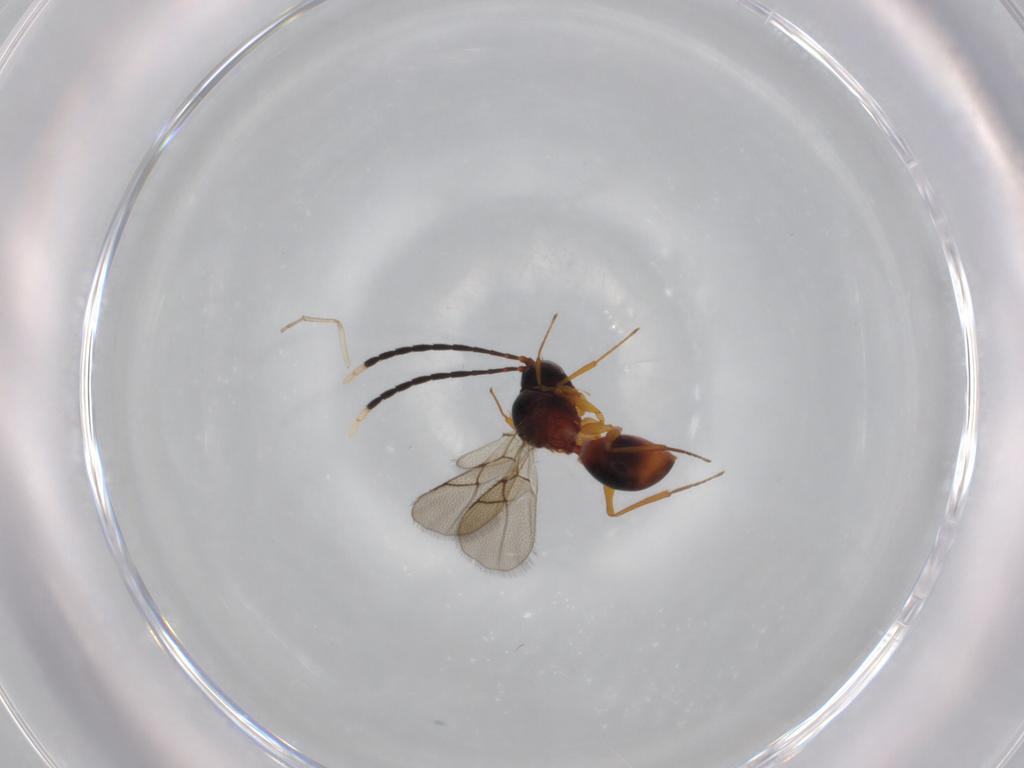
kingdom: Animalia
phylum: Arthropoda
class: Insecta
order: Hymenoptera
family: Figitidae
